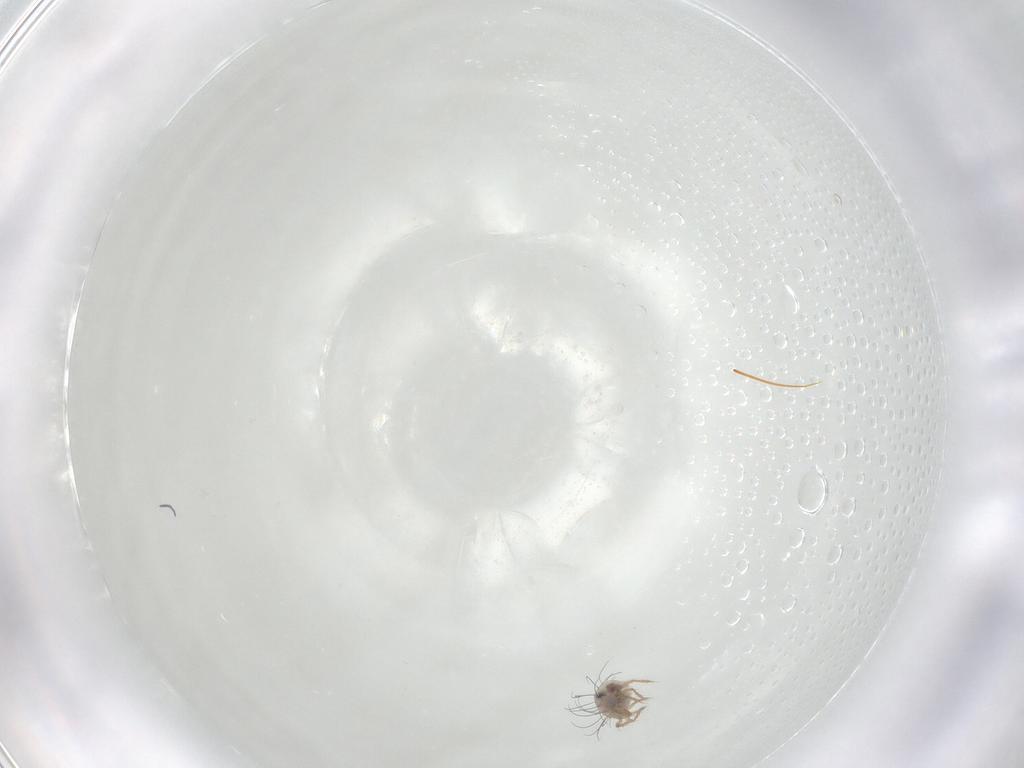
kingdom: Animalia
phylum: Arthropoda
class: Arachnida
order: Sarcoptiformes
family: Caloppiidae
